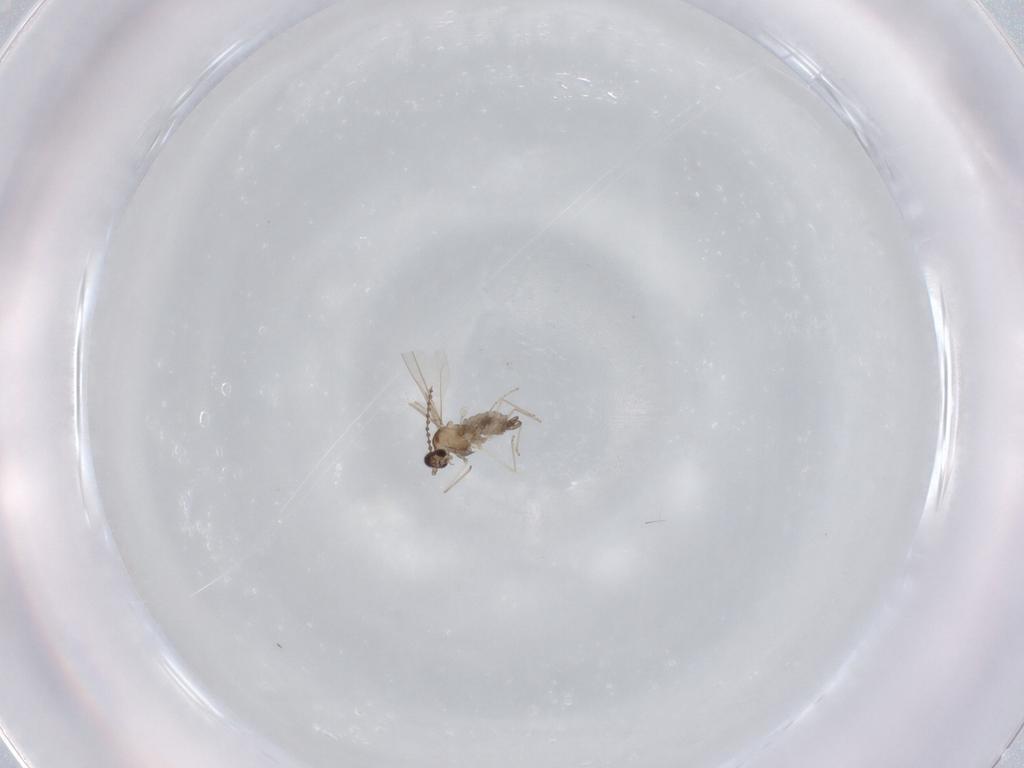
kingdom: Animalia
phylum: Arthropoda
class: Insecta
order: Diptera
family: Cecidomyiidae
